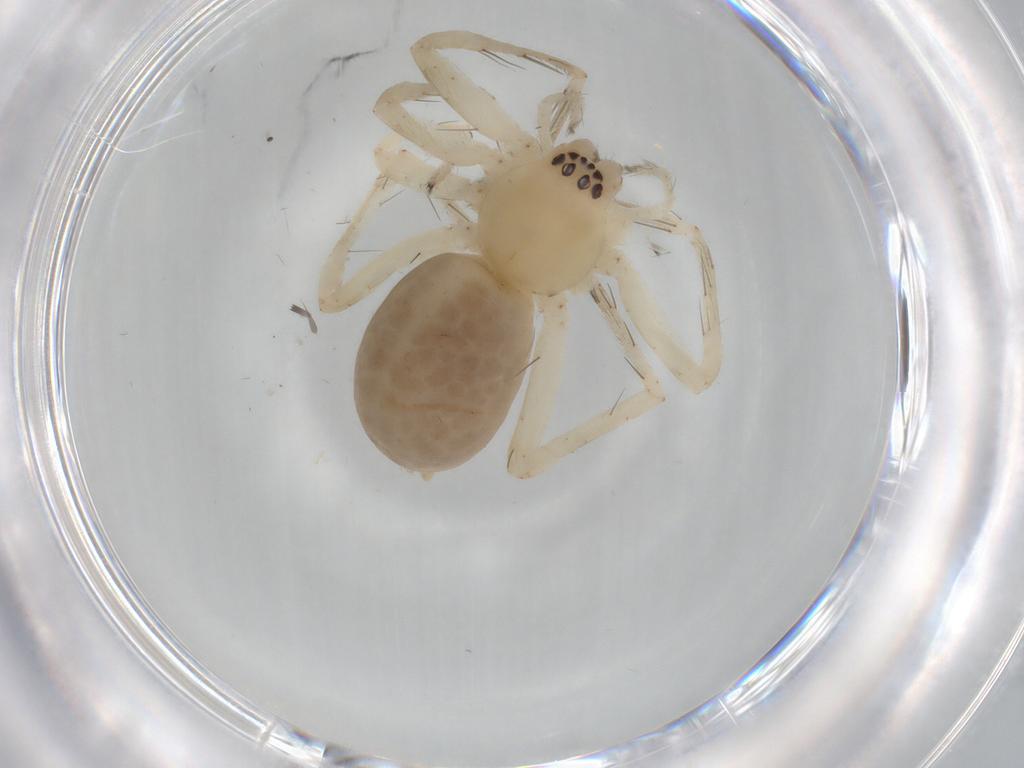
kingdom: Animalia
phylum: Arthropoda
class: Arachnida
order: Araneae
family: Anyphaenidae
